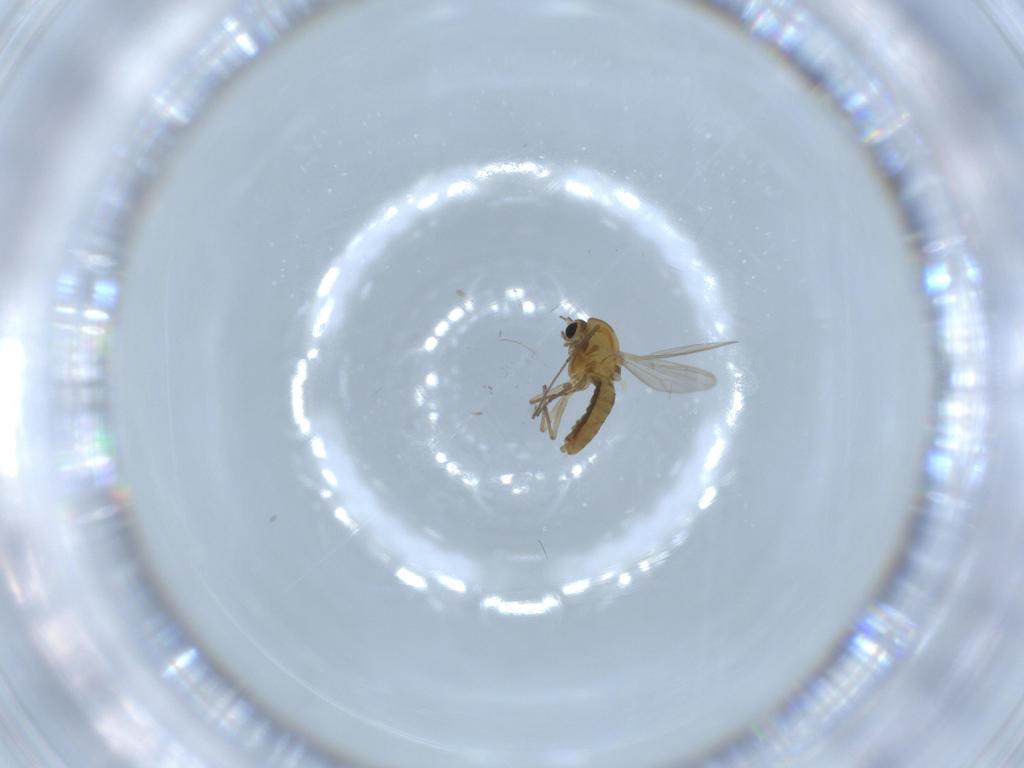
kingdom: Animalia
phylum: Arthropoda
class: Insecta
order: Diptera
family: Chironomidae
